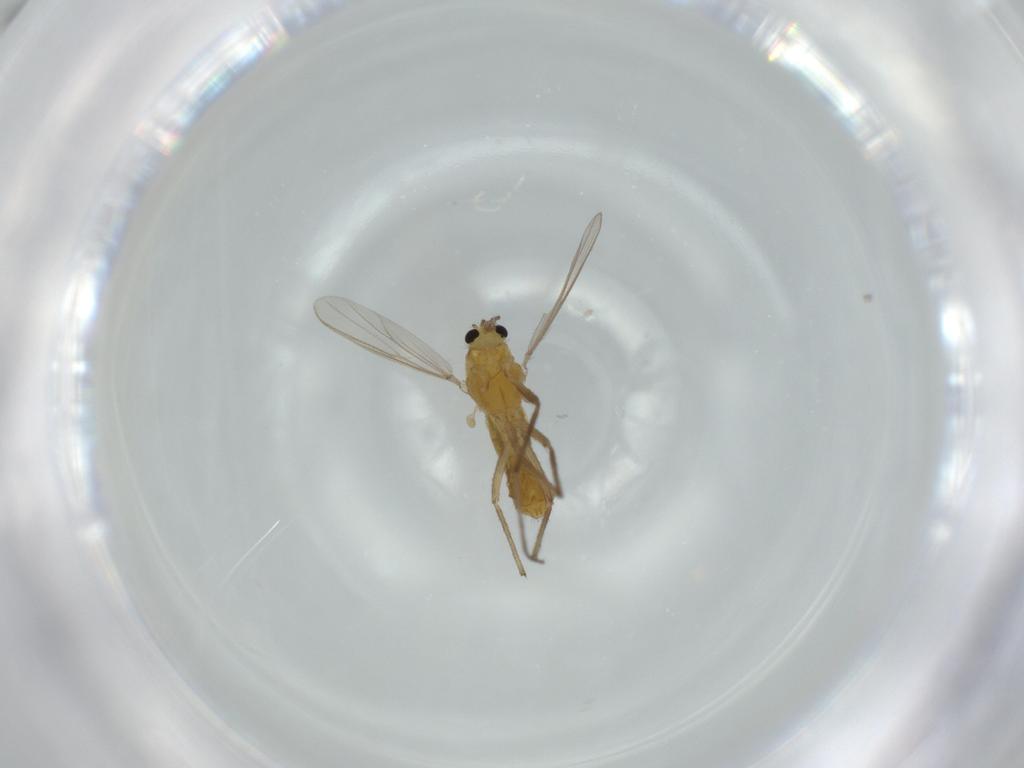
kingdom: Animalia
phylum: Arthropoda
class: Insecta
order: Diptera
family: Chironomidae
